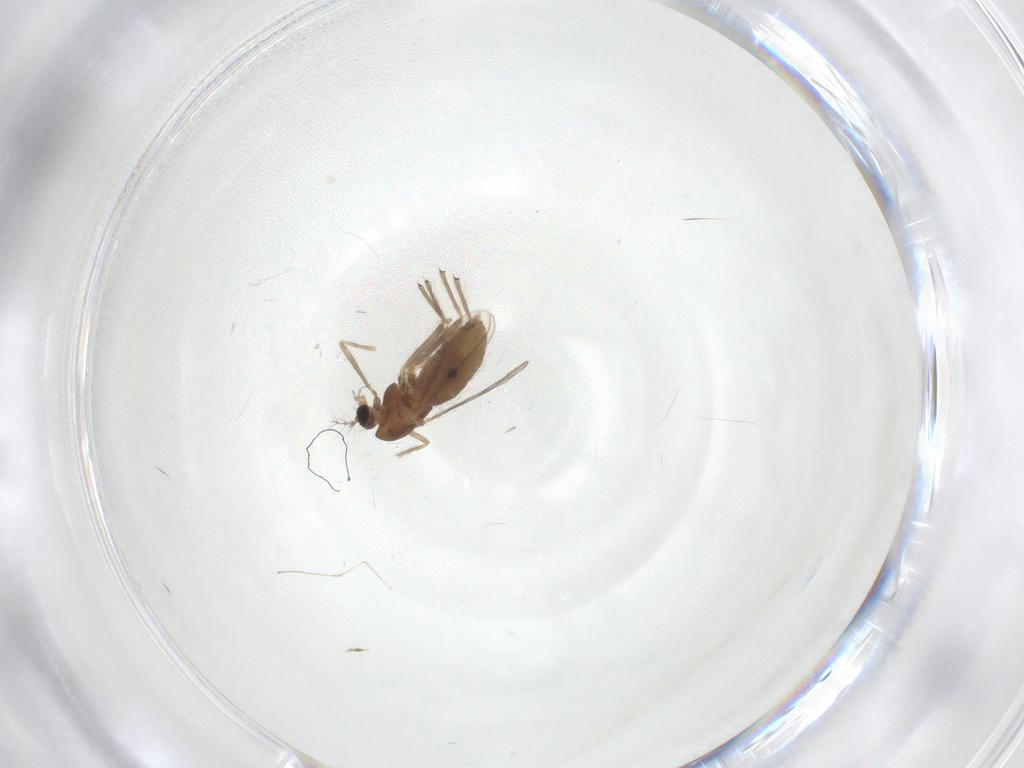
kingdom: Animalia
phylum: Arthropoda
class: Insecta
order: Diptera
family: Chironomidae
